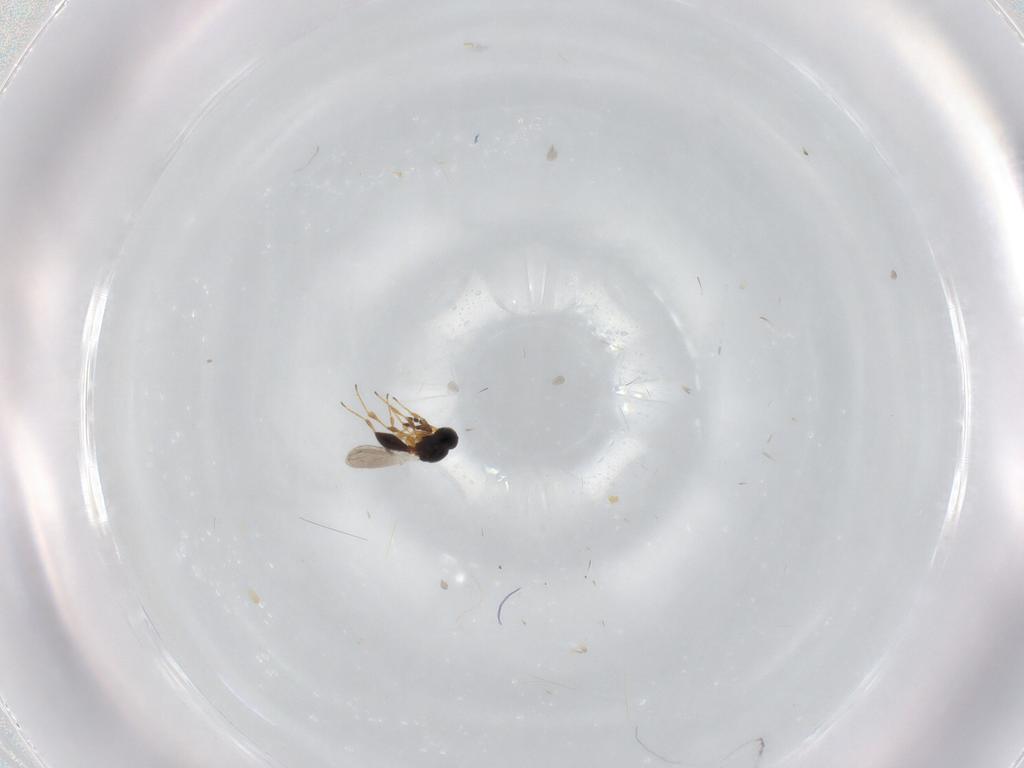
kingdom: Animalia
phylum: Arthropoda
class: Insecta
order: Hymenoptera
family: Platygastridae
